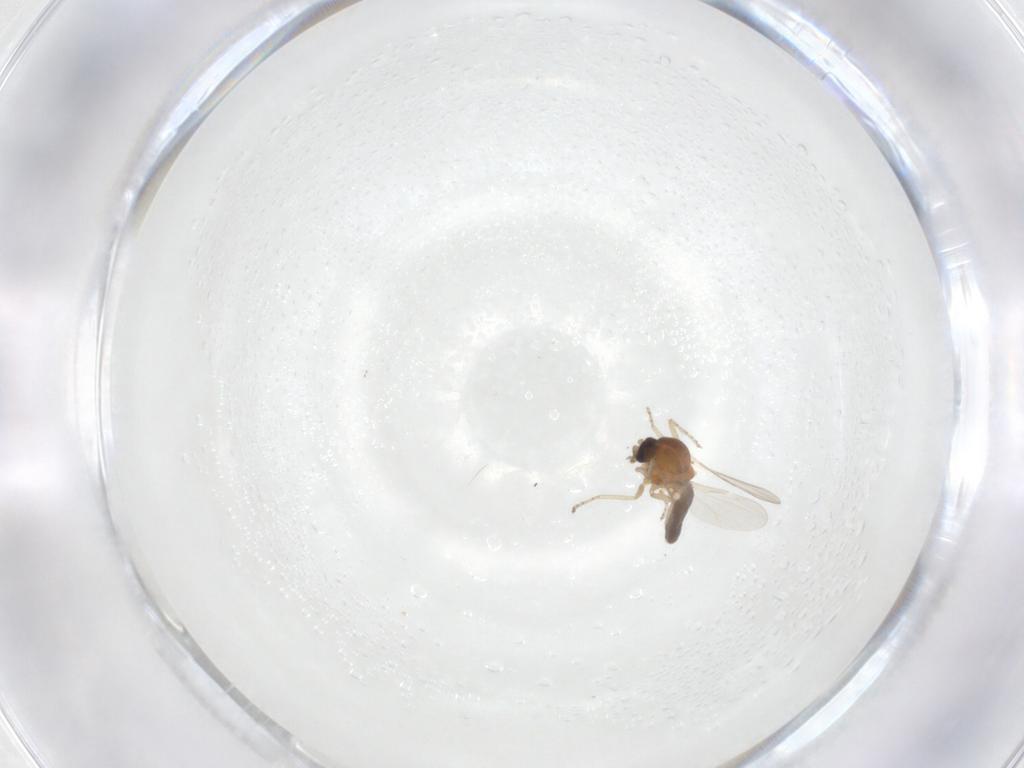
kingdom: Animalia
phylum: Arthropoda
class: Insecta
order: Diptera
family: Ceratopogonidae
